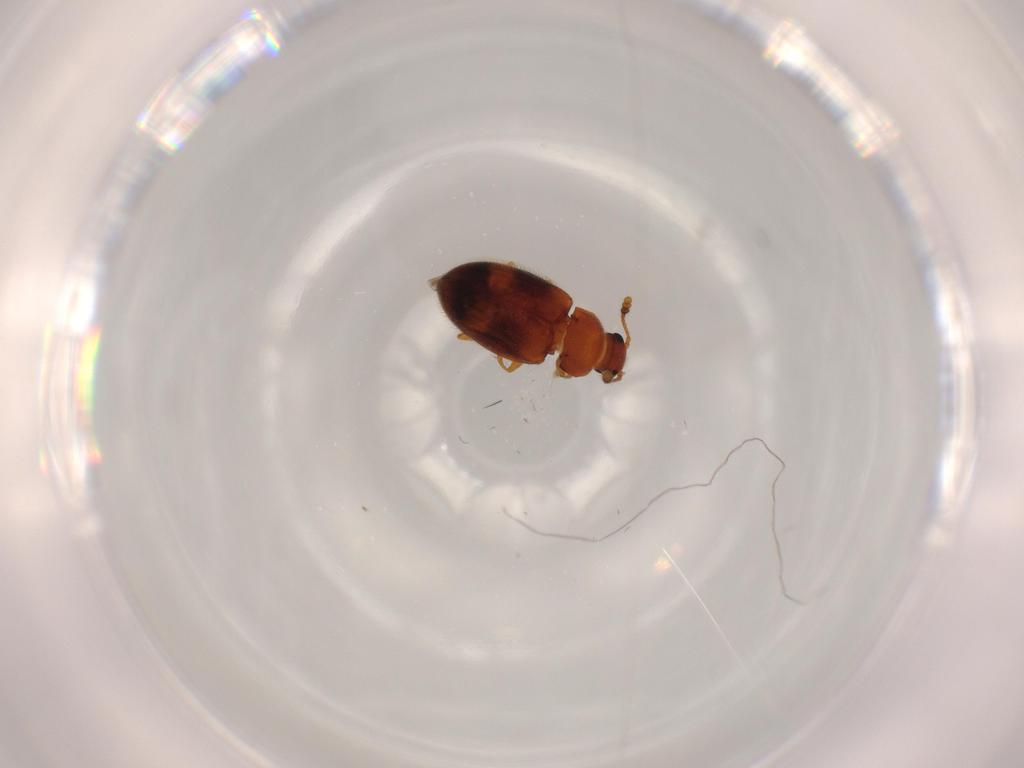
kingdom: Animalia
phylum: Arthropoda
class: Insecta
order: Coleoptera
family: Erotylidae
